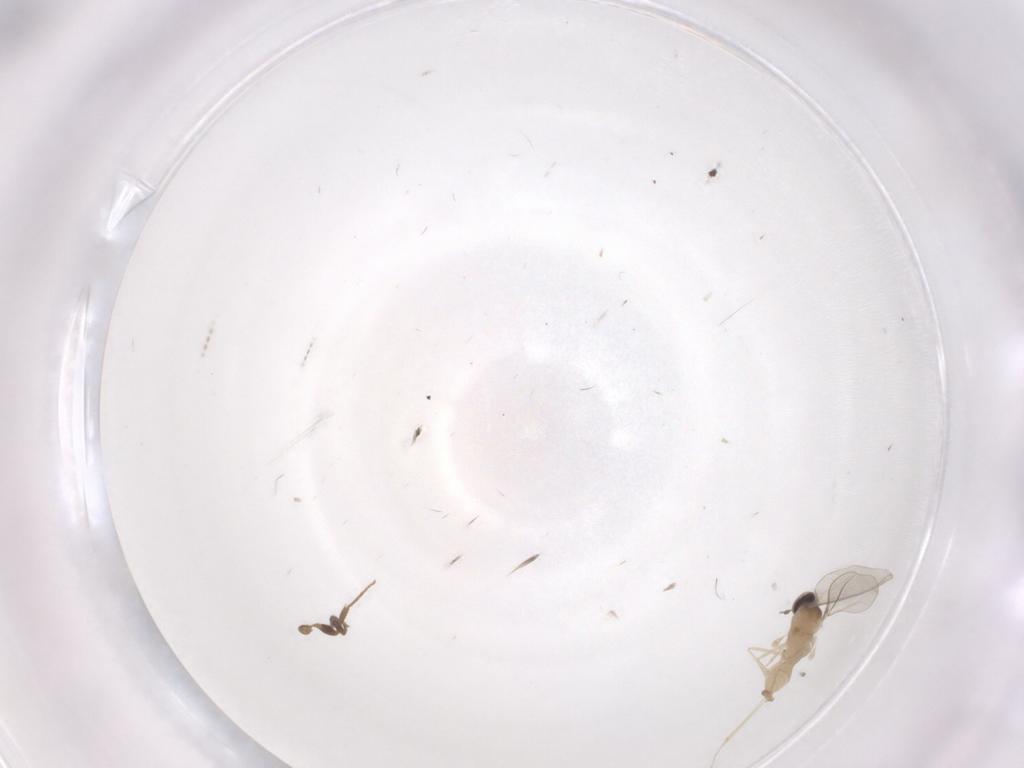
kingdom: Animalia
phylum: Arthropoda
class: Insecta
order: Diptera
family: Cecidomyiidae
